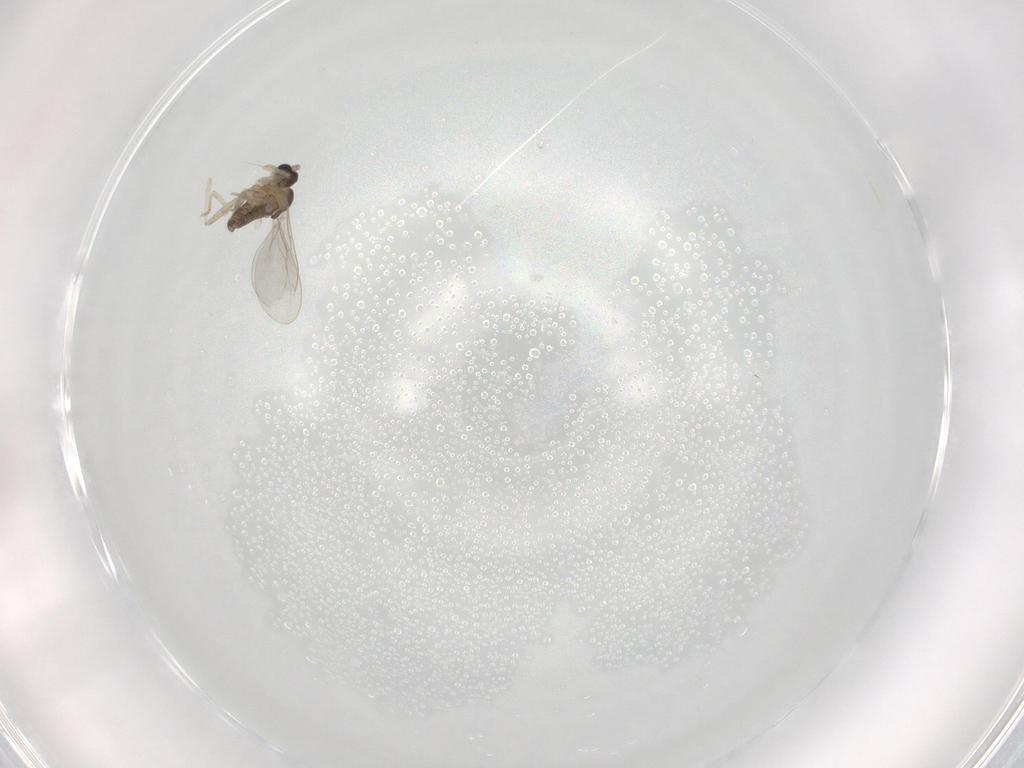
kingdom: Animalia
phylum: Arthropoda
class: Insecta
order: Diptera
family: Cecidomyiidae
